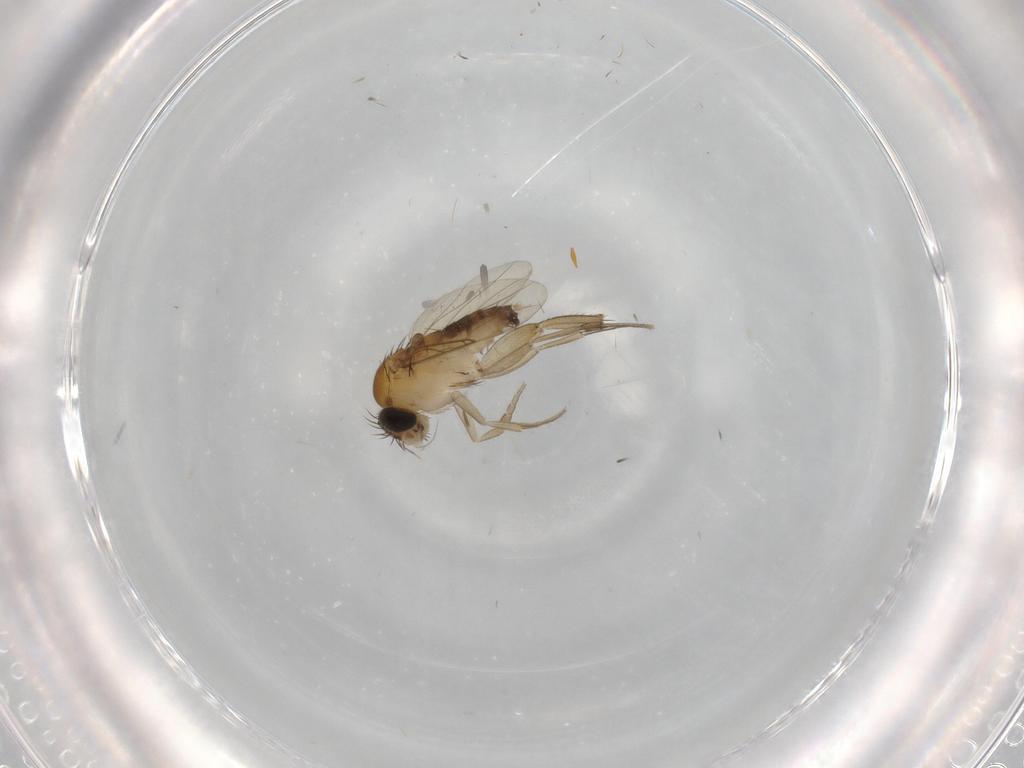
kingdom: Animalia
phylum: Arthropoda
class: Insecta
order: Diptera
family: Phoridae
